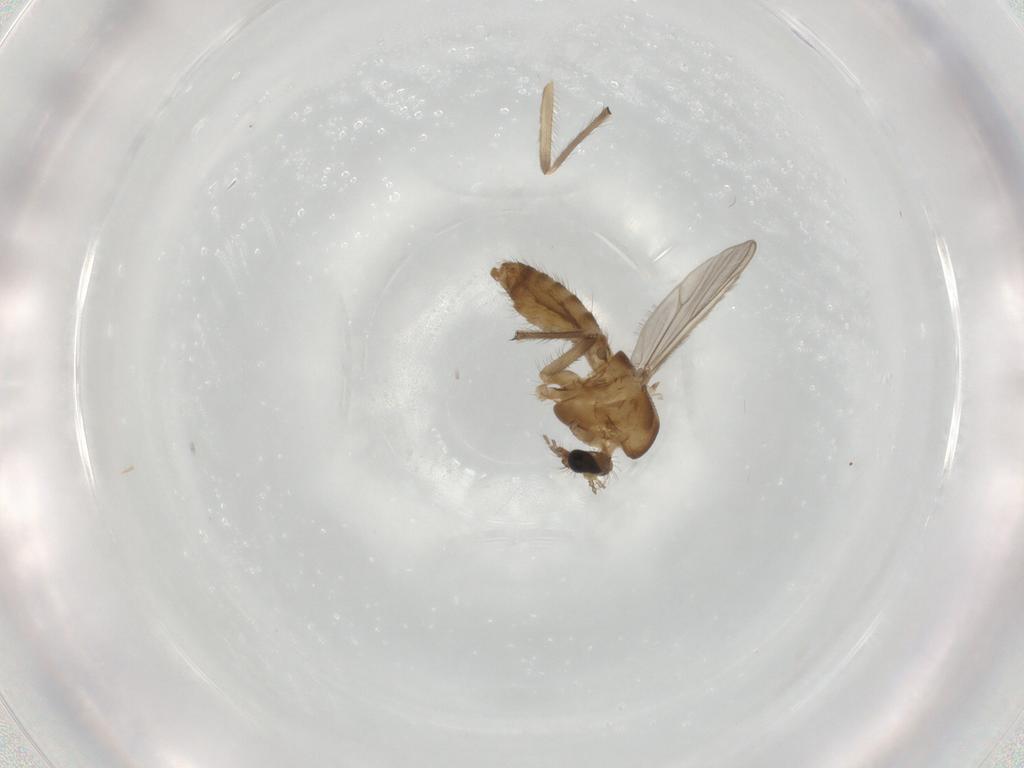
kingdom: Animalia
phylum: Arthropoda
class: Insecta
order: Diptera
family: Chironomidae
